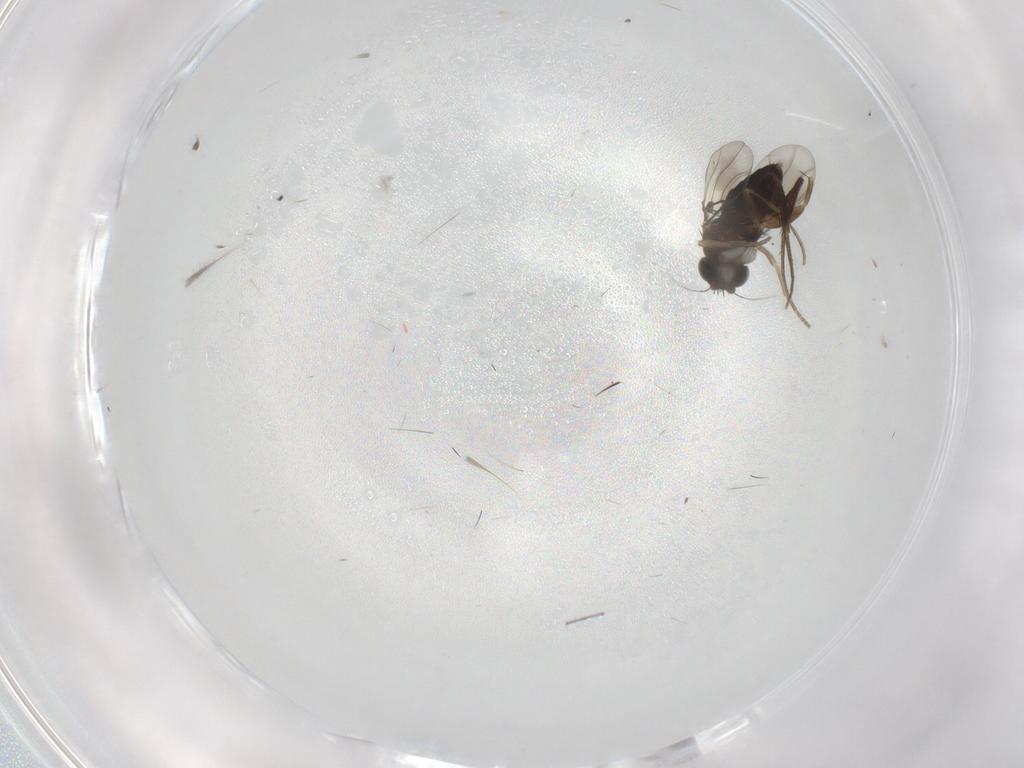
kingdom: Animalia
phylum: Arthropoda
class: Insecta
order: Diptera
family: Phoridae
